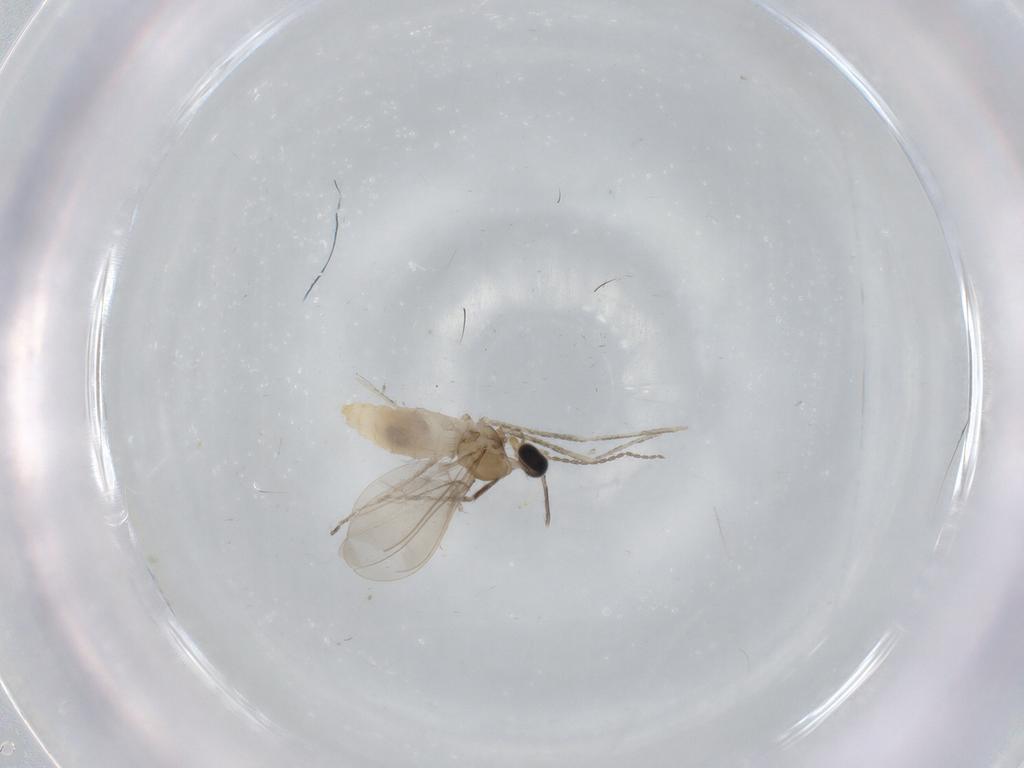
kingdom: Animalia
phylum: Arthropoda
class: Insecta
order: Diptera
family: Cecidomyiidae
